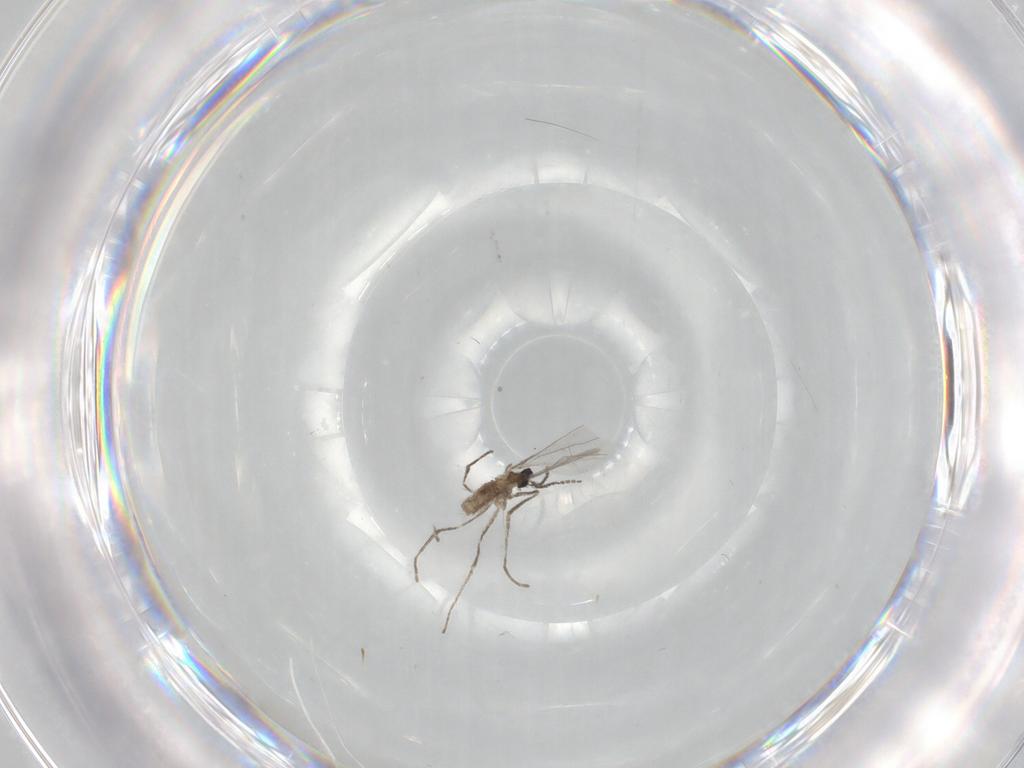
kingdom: Animalia
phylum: Arthropoda
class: Insecta
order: Diptera
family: Cecidomyiidae
